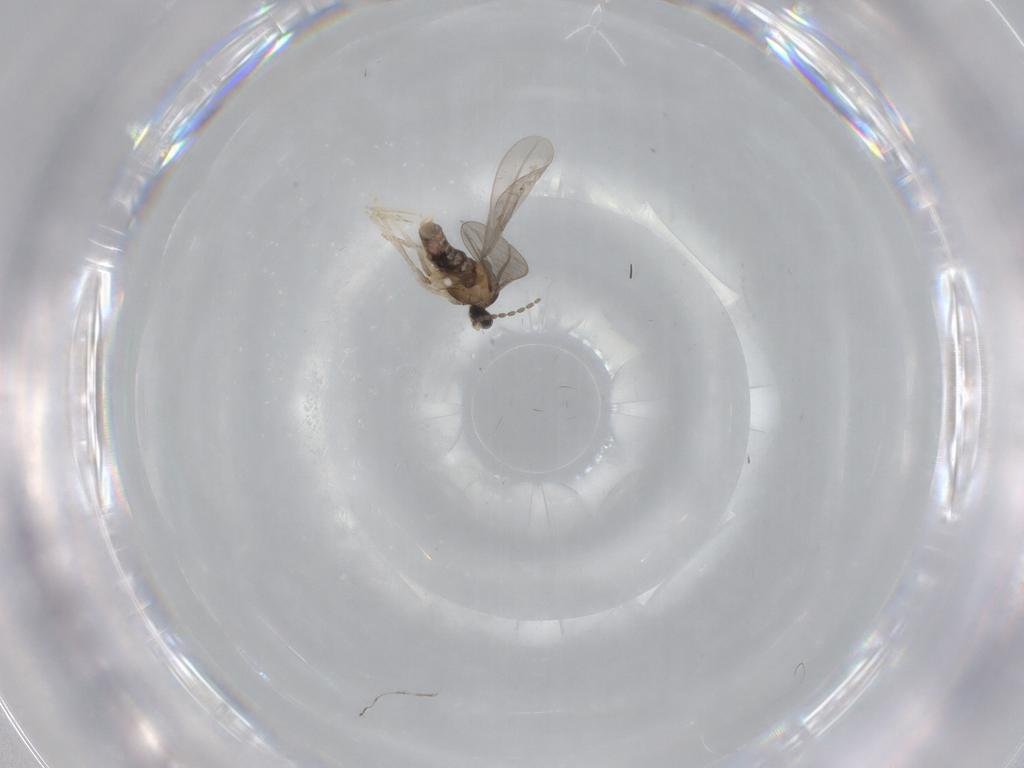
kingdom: Animalia
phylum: Arthropoda
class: Insecta
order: Diptera
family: Cecidomyiidae
